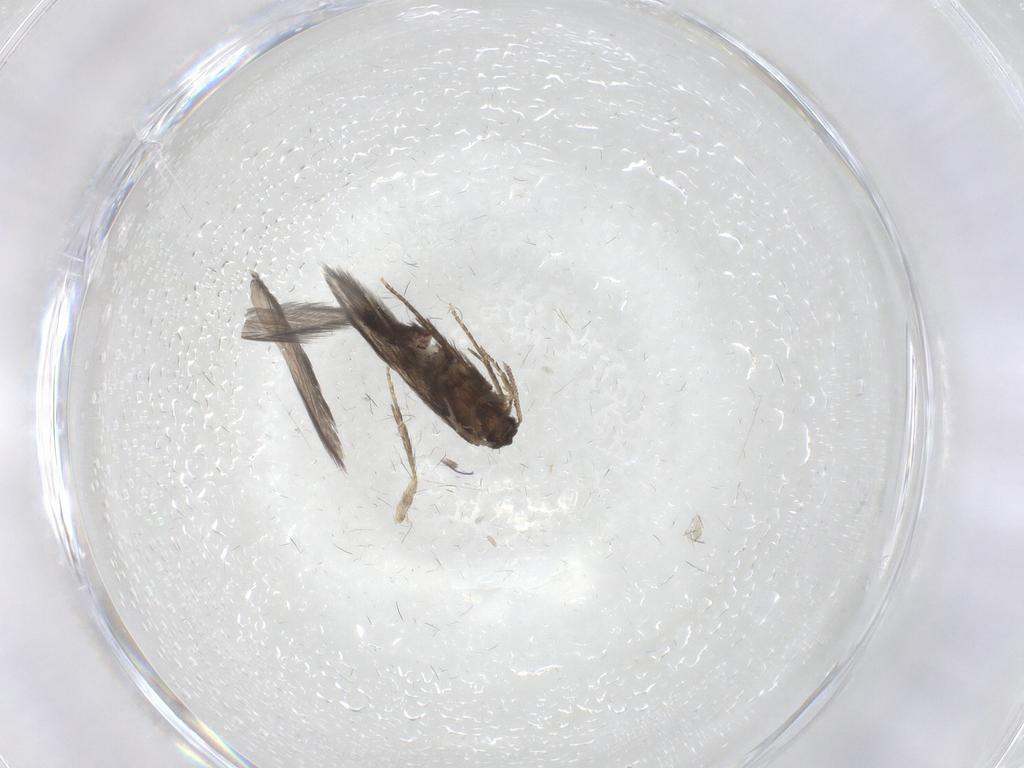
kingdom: Animalia
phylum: Arthropoda
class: Insecta
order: Trichoptera
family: Hydroptilidae
